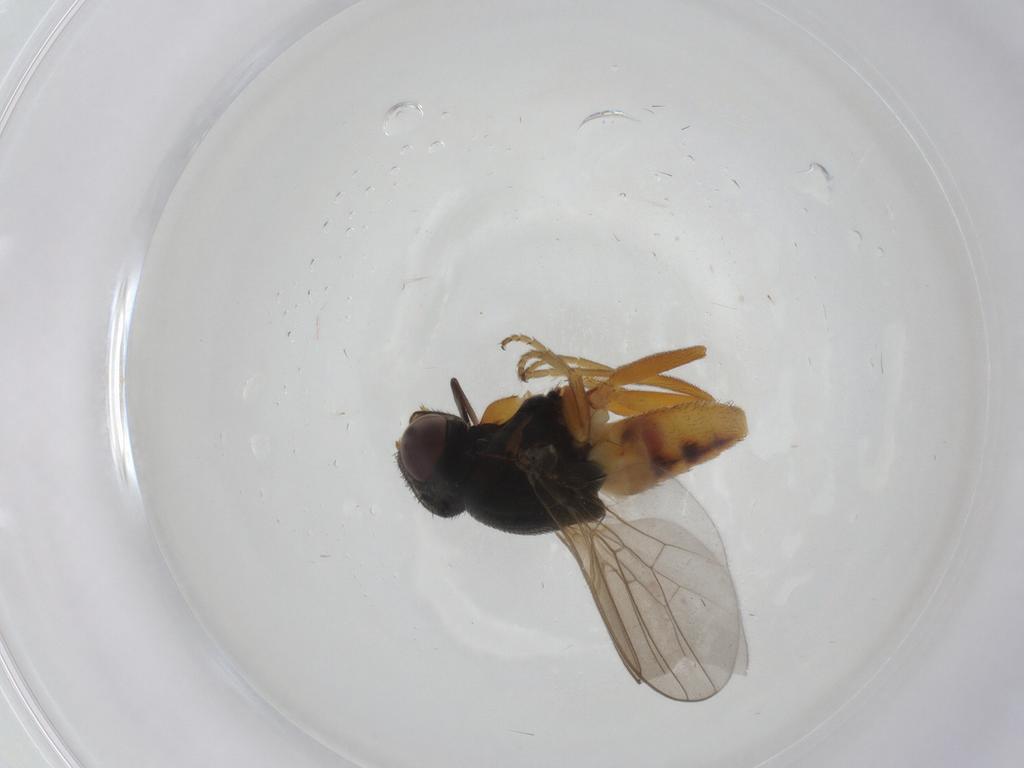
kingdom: Animalia
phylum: Arthropoda
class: Insecta
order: Diptera
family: Chloropidae
